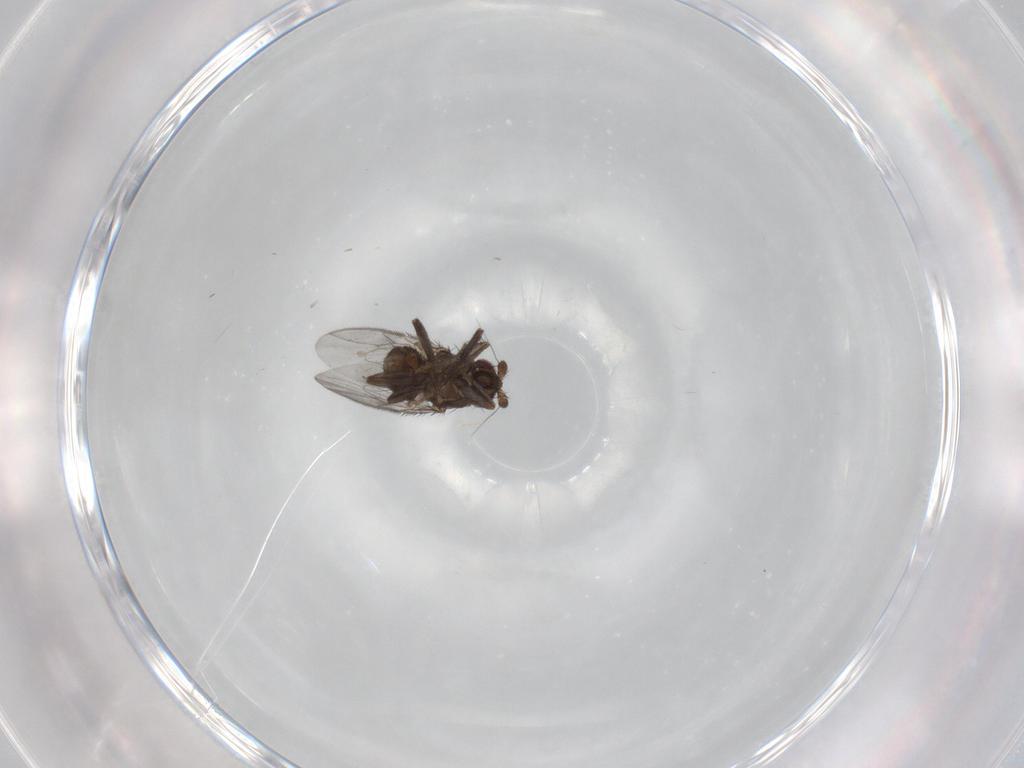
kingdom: Animalia
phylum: Arthropoda
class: Insecta
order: Diptera
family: Sphaeroceridae
